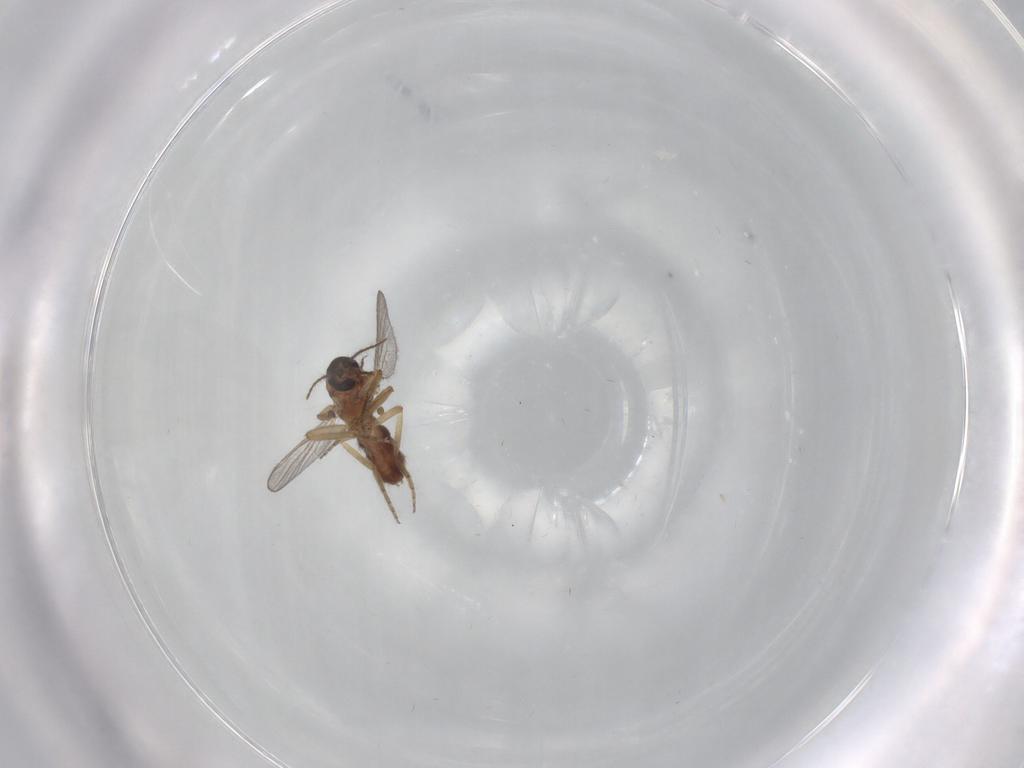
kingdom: Animalia
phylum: Arthropoda
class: Insecta
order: Diptera
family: Ceratopogonidae
